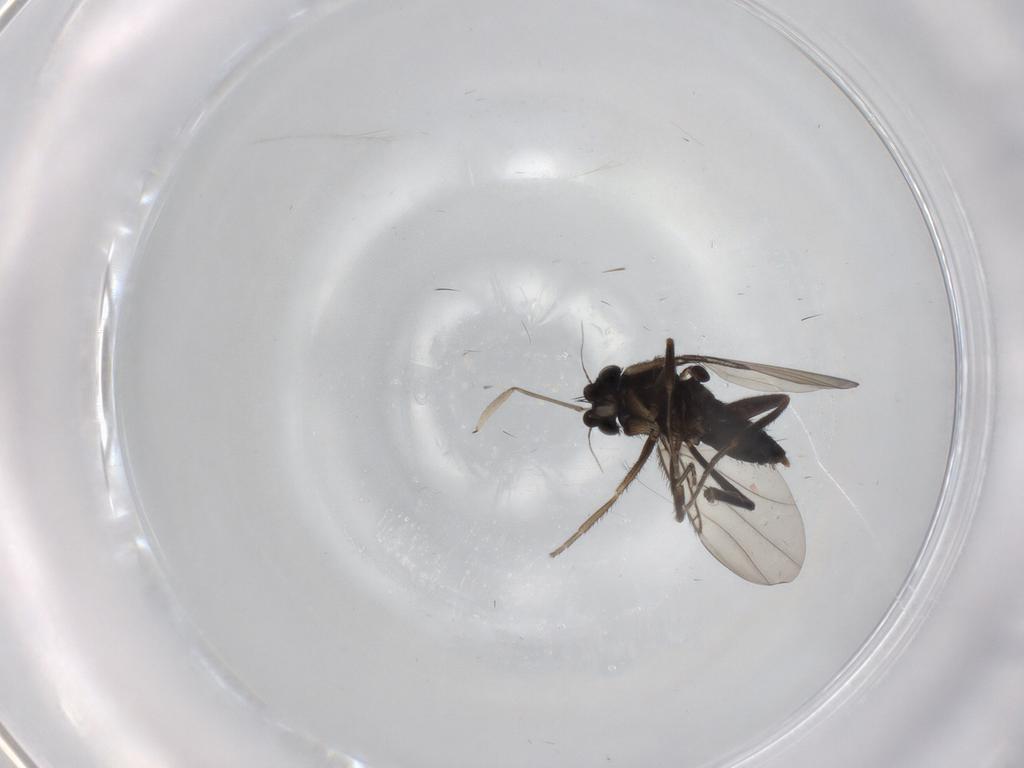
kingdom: Animalia
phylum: Arthropoda
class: Insecta
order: Diptera
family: Phoridae
